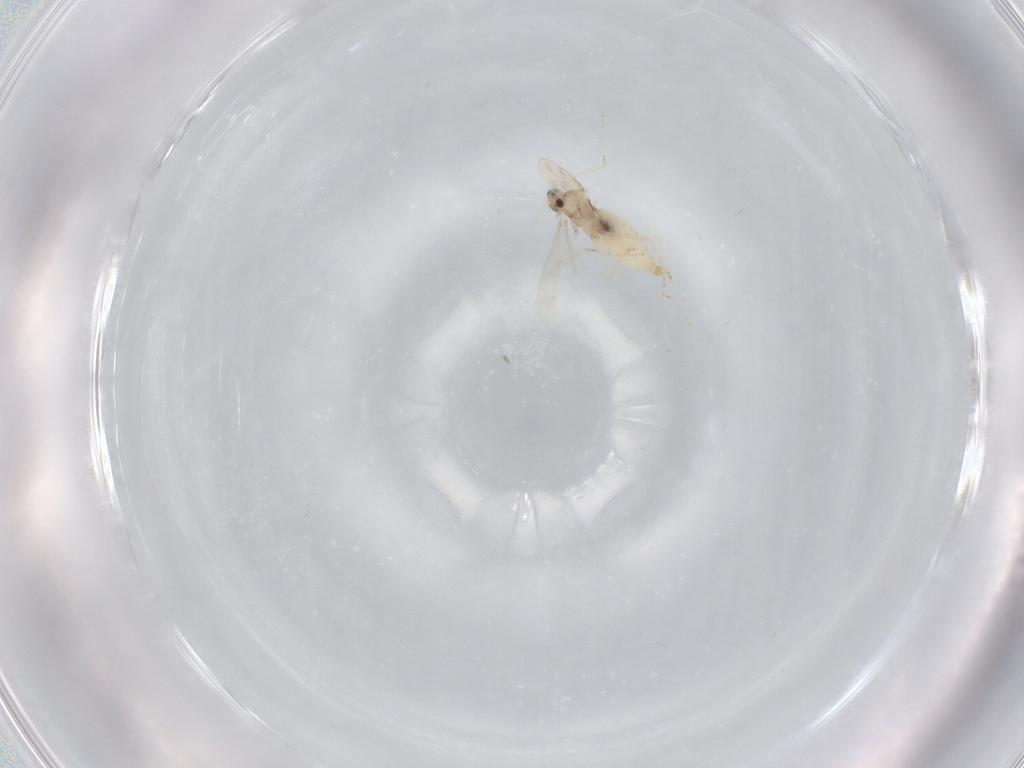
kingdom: Animalia
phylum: Arthropoda
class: Insecta
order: Diptera
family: Cecidomyiidae
